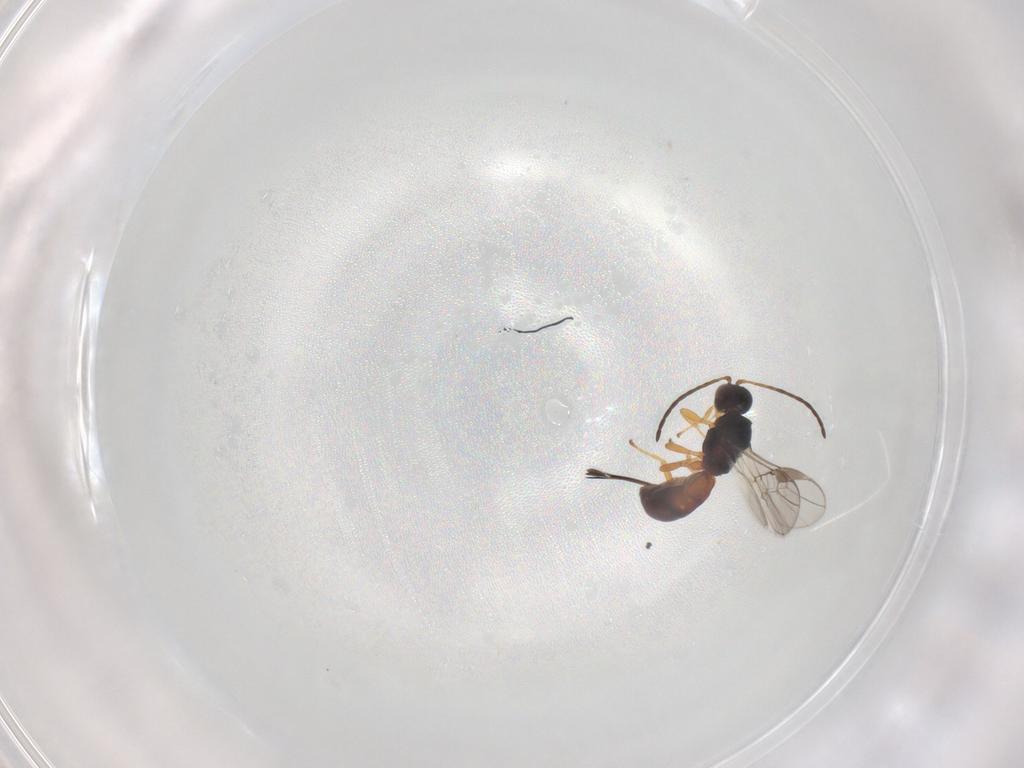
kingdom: Animalia
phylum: Arthropoda
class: Insecta
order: Hymenoptera
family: Braconidae
